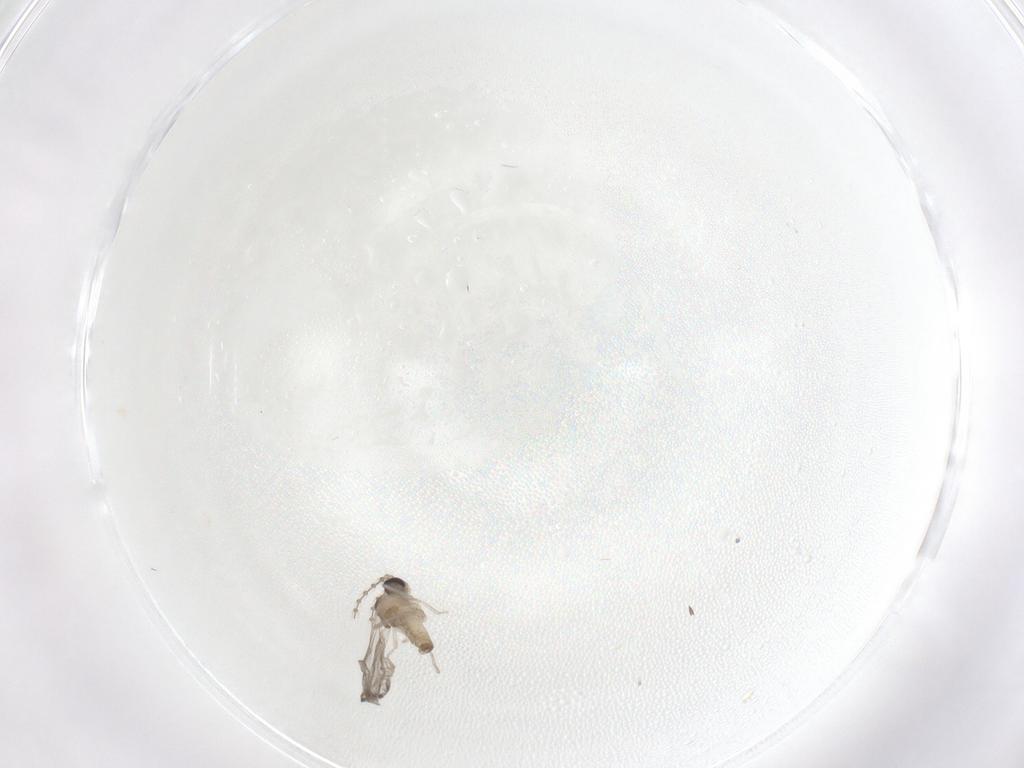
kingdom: Animalia
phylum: Arthropoda
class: Insecta
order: Diptera
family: Cecidomyiidae
